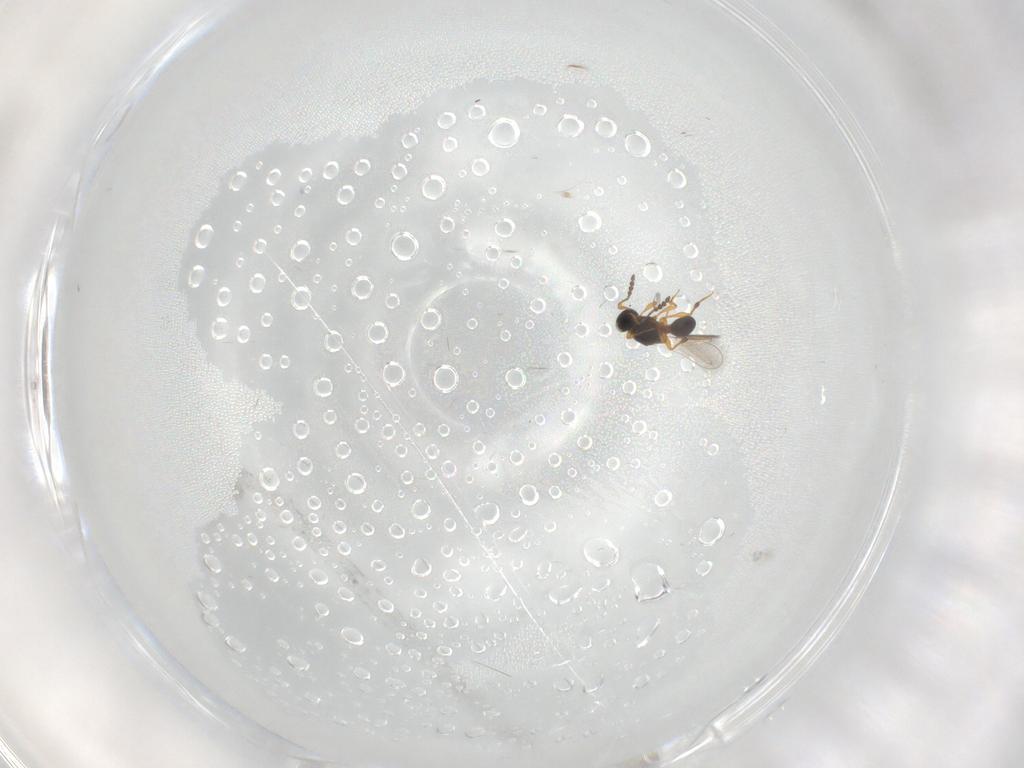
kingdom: Animalia
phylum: Arthropoda
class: Insecta
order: Hymenoptera
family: Platygastridae
